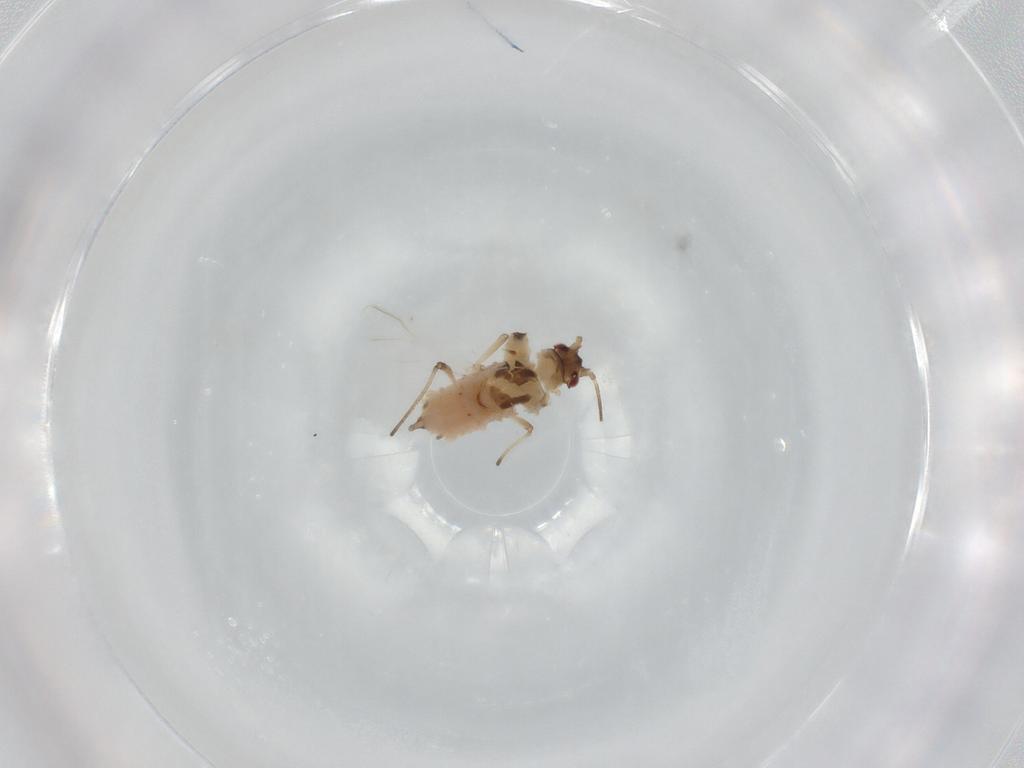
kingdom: Animalia
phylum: Arthropoda
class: Insecta
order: Hemiptera
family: Aphididae
